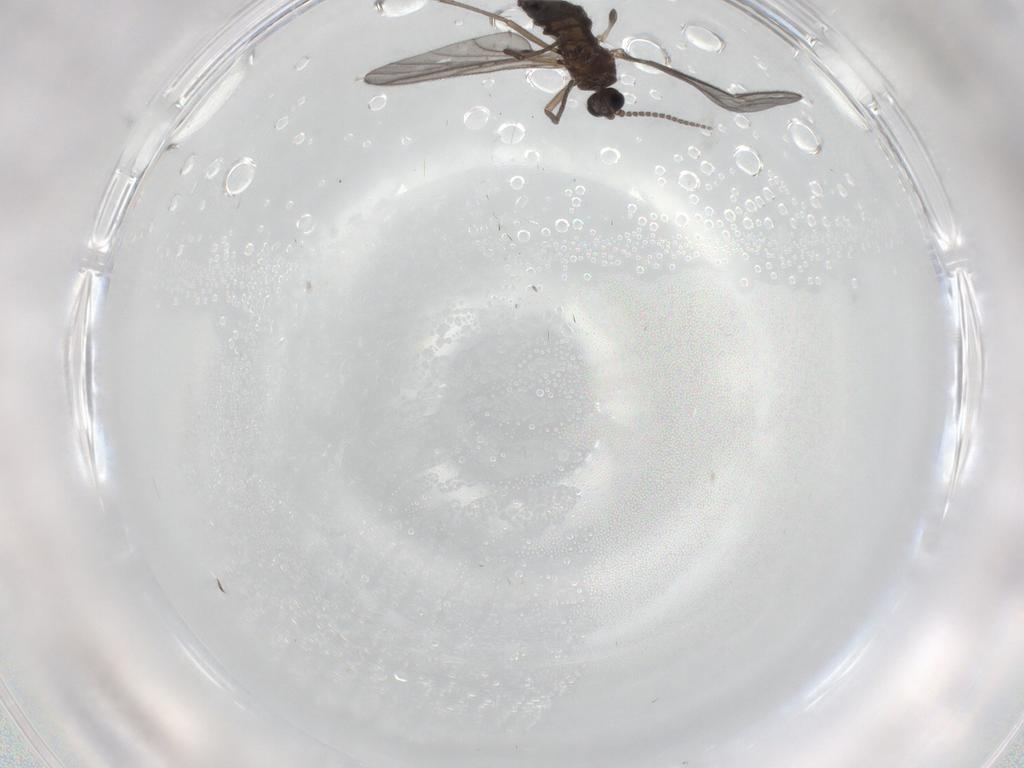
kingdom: Animalia
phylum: Arthropoda
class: Insecta
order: Diptera
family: Sciaridae
